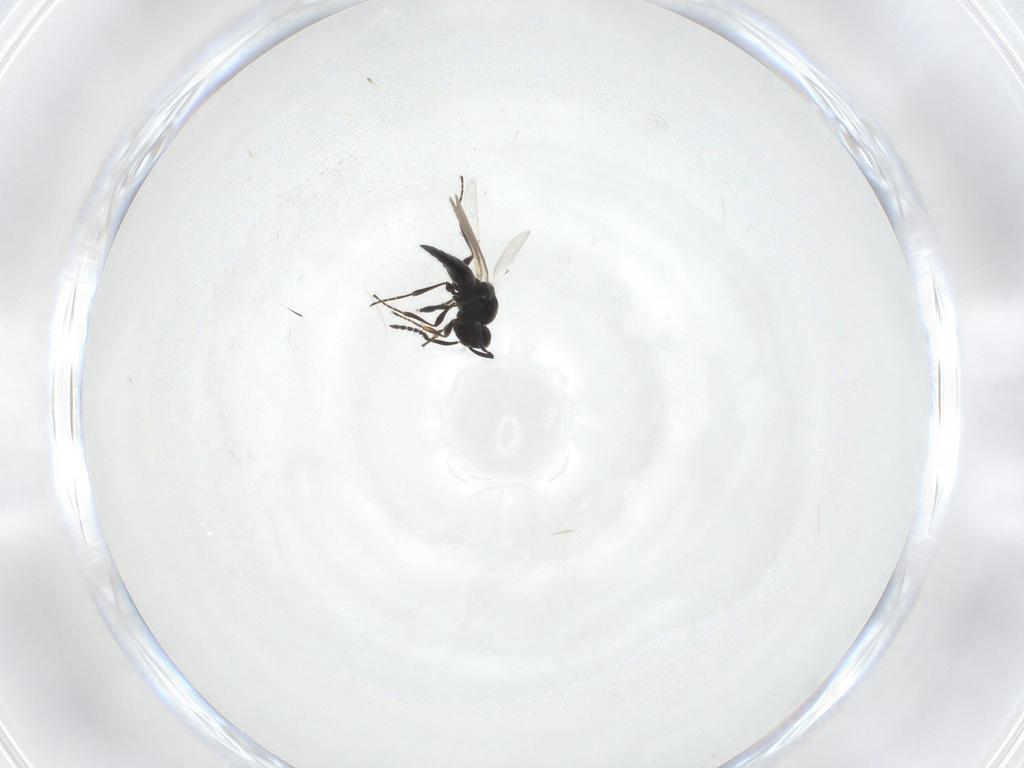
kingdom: Animalia
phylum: Arthropoda
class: Insecta
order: Hymenoptera
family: Platygastridae
